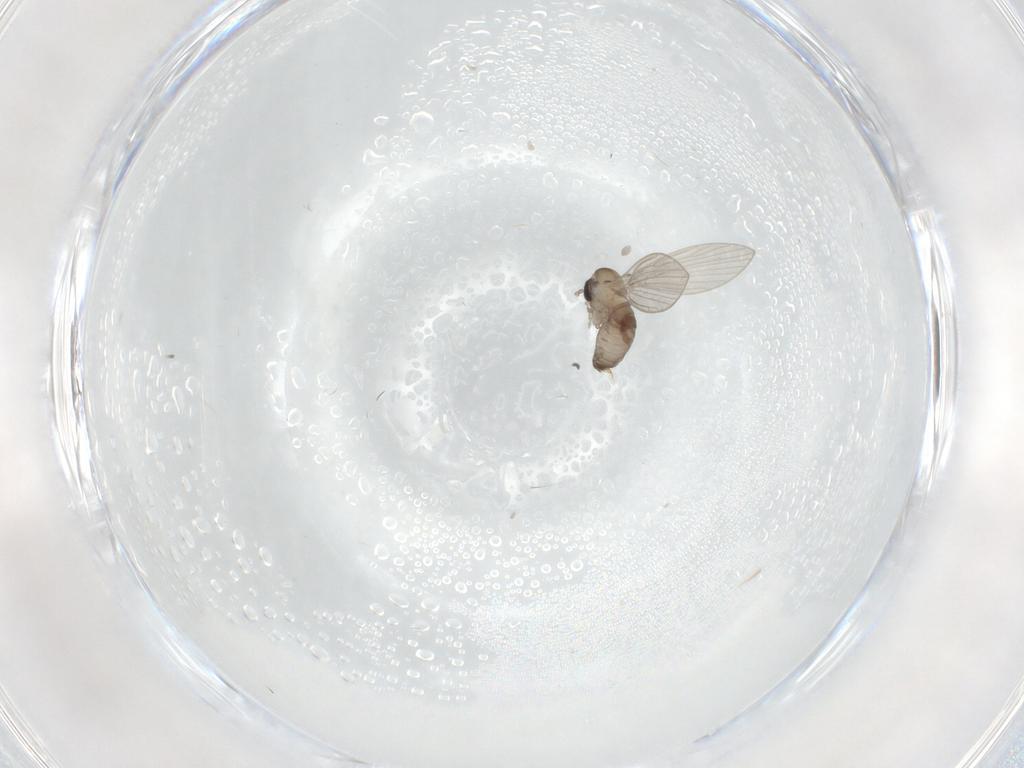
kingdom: Animalia
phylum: Arthropoda
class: Insecta
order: Diptera
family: Psychodidae
